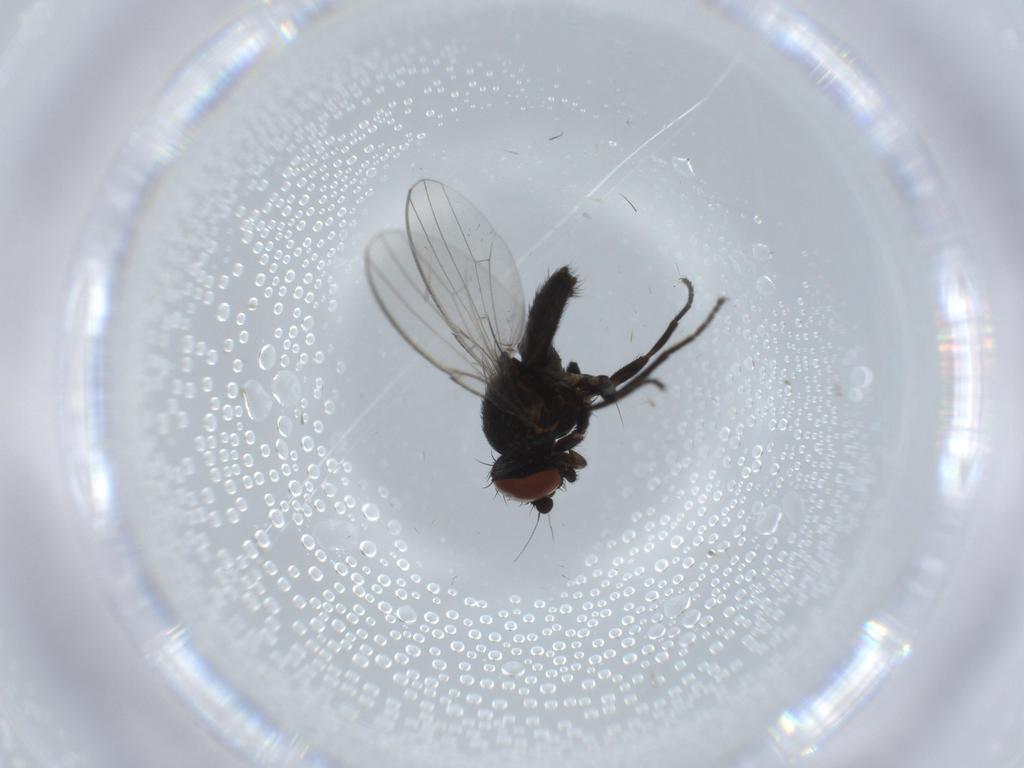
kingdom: Animalia
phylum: Arthropoda
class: Insecta
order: Diptera
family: Milichiidae
